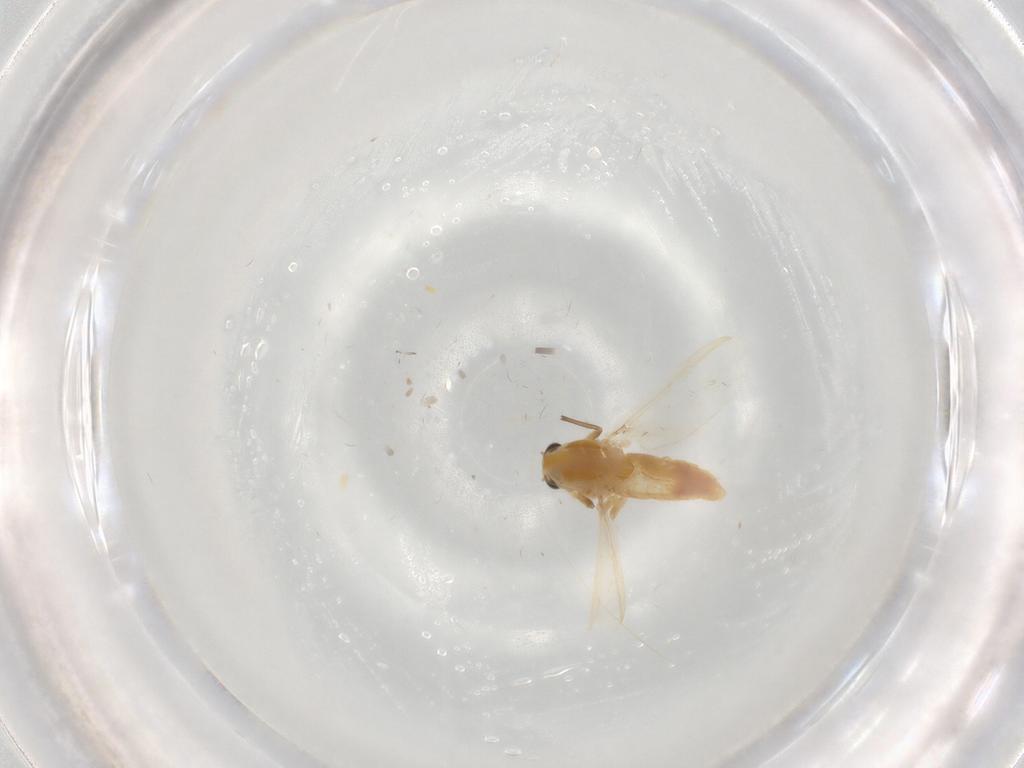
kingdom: Animalia
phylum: Arthropoda
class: Insecta
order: Diptera
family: Chironomidae
